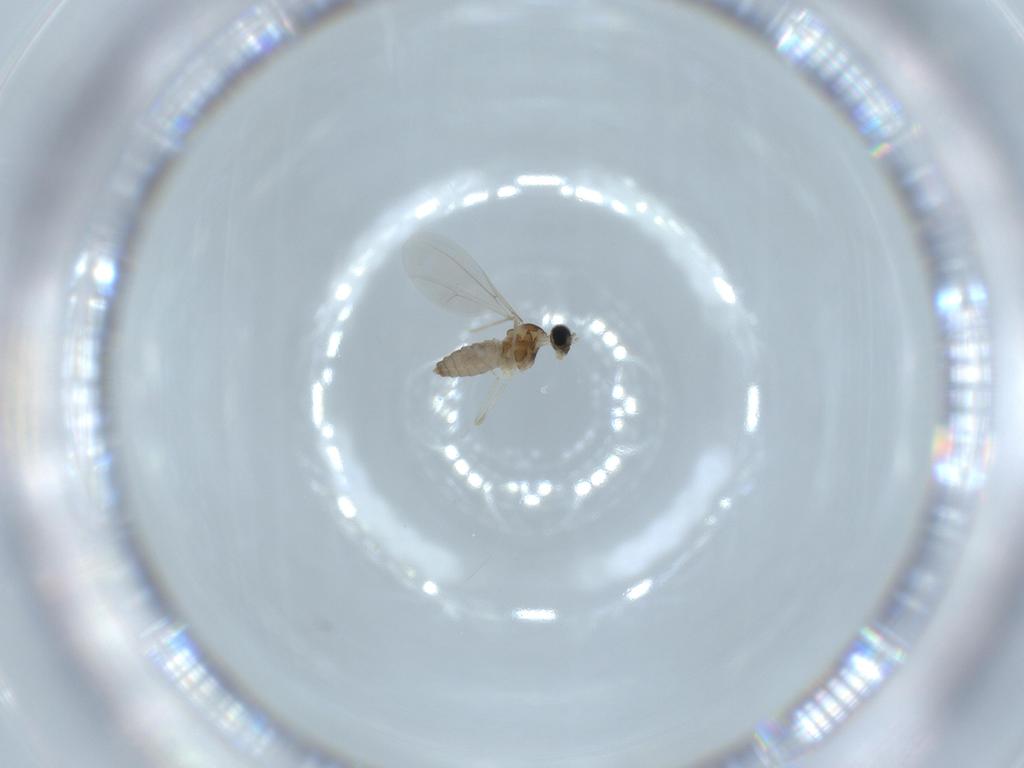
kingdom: Animalia
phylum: Arthropoda
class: Insecta
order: Diptera
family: Cecidomyiidae
